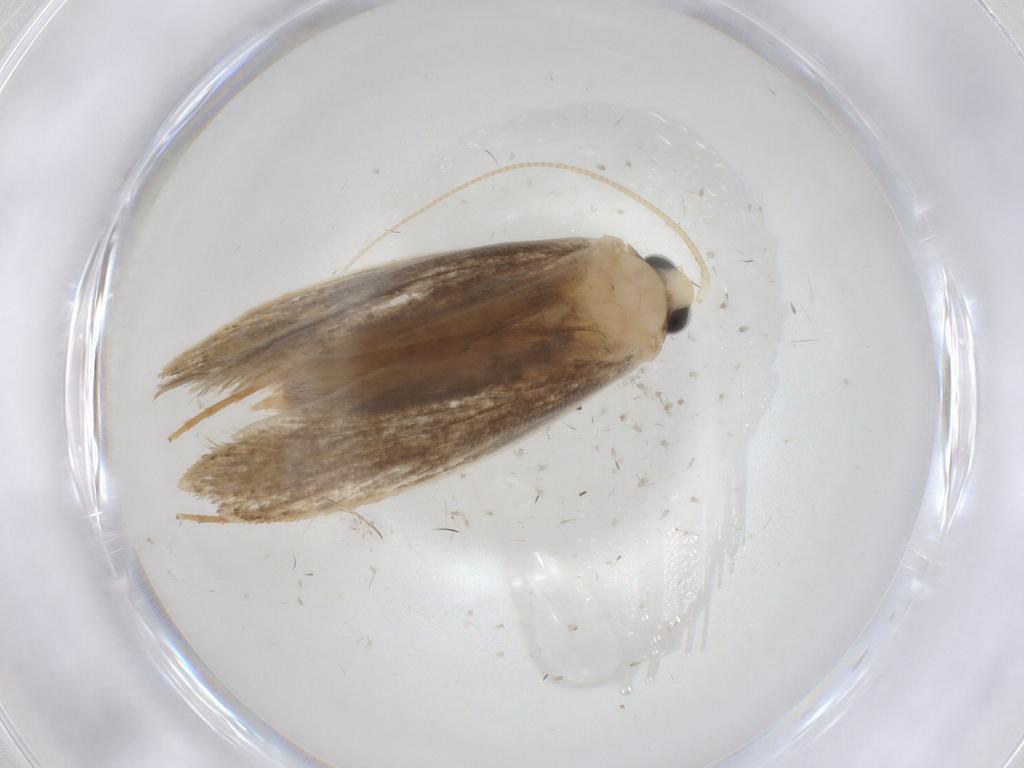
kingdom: Animalia
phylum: Arthropoda
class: Insecta
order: Lepidoptera
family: Tineidae
